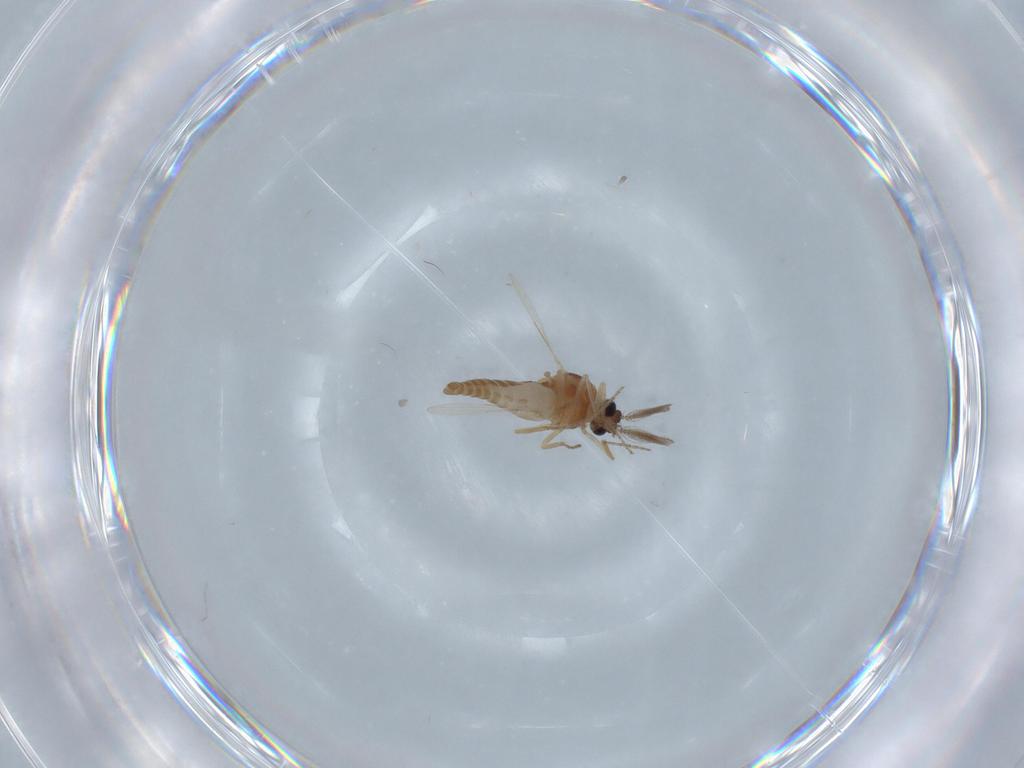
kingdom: Animalia
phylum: Arthropoda
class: Insecta
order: Diptera
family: Ceratopogonidae
